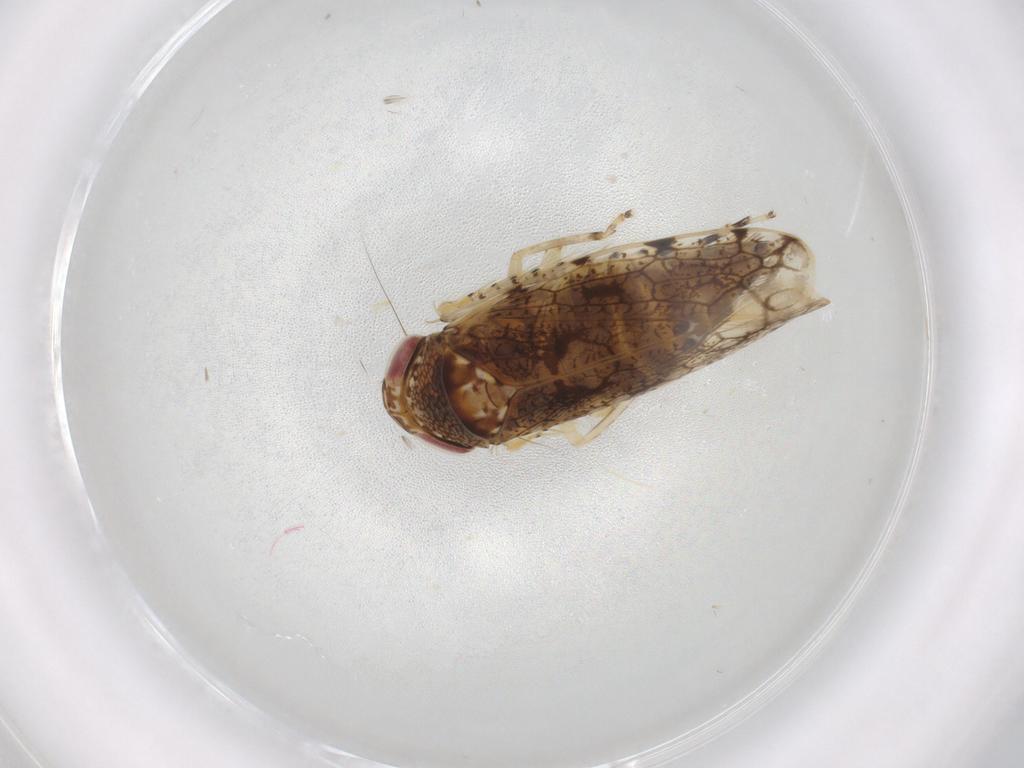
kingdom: Animalia
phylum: Arthropoda
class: Insecta
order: Hemiptera
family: Cicadellidae
